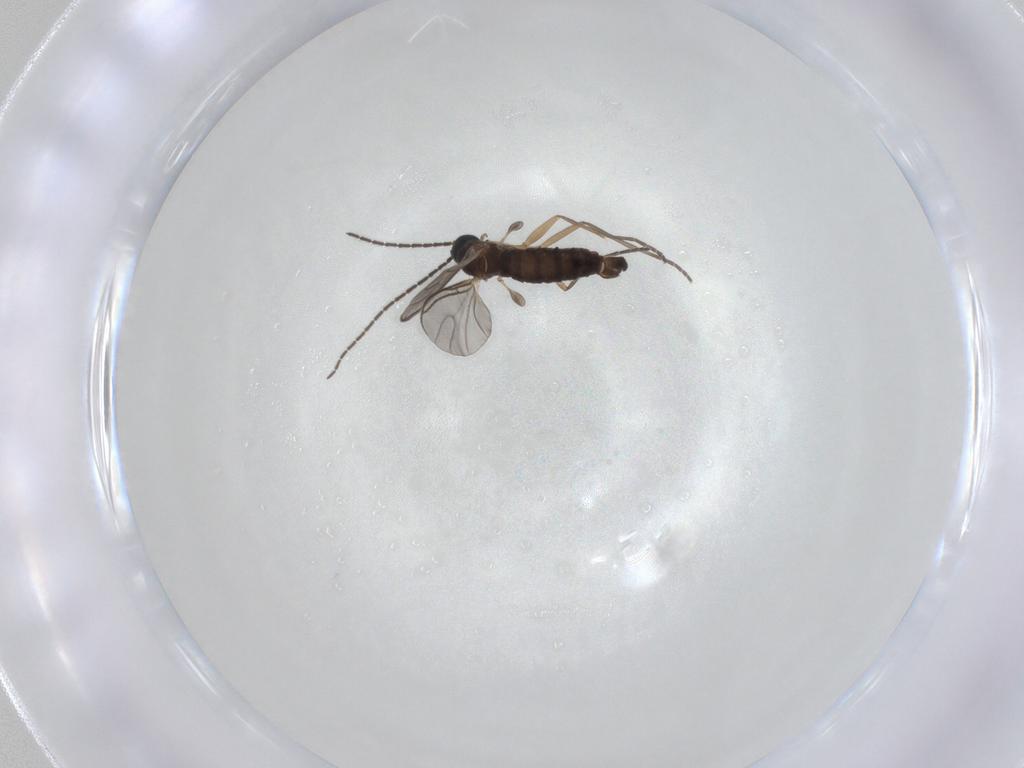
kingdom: Animalia
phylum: Arthropoda
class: Insecta
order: Diptera
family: Sciaridae
